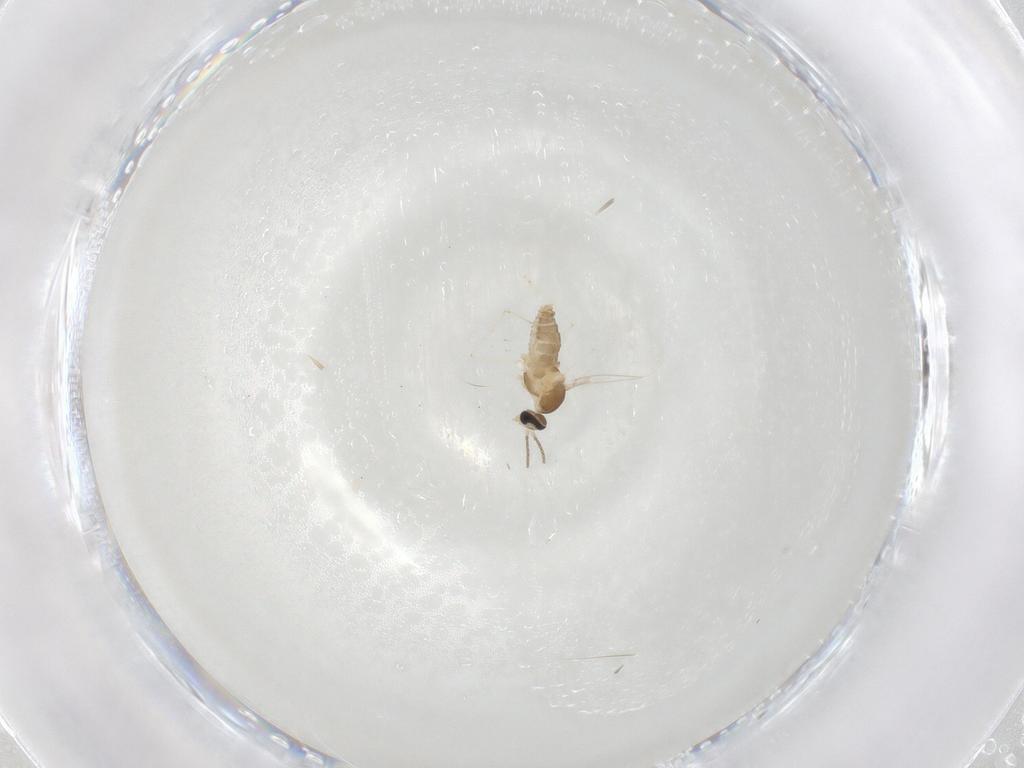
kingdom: Animalia
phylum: Arthropoda
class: Insecta
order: Diptera
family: Cecidomyiidae
